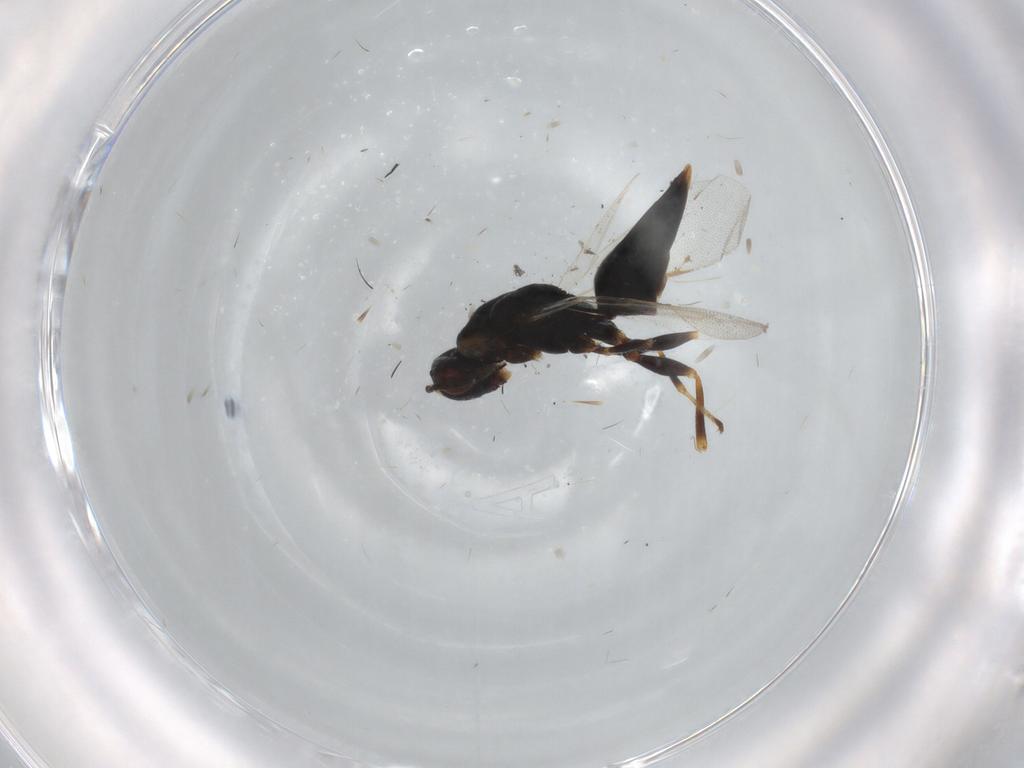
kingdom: Animalia
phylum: Arthropoda
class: Insecta
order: Hymenoptera
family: Eurytomidae
